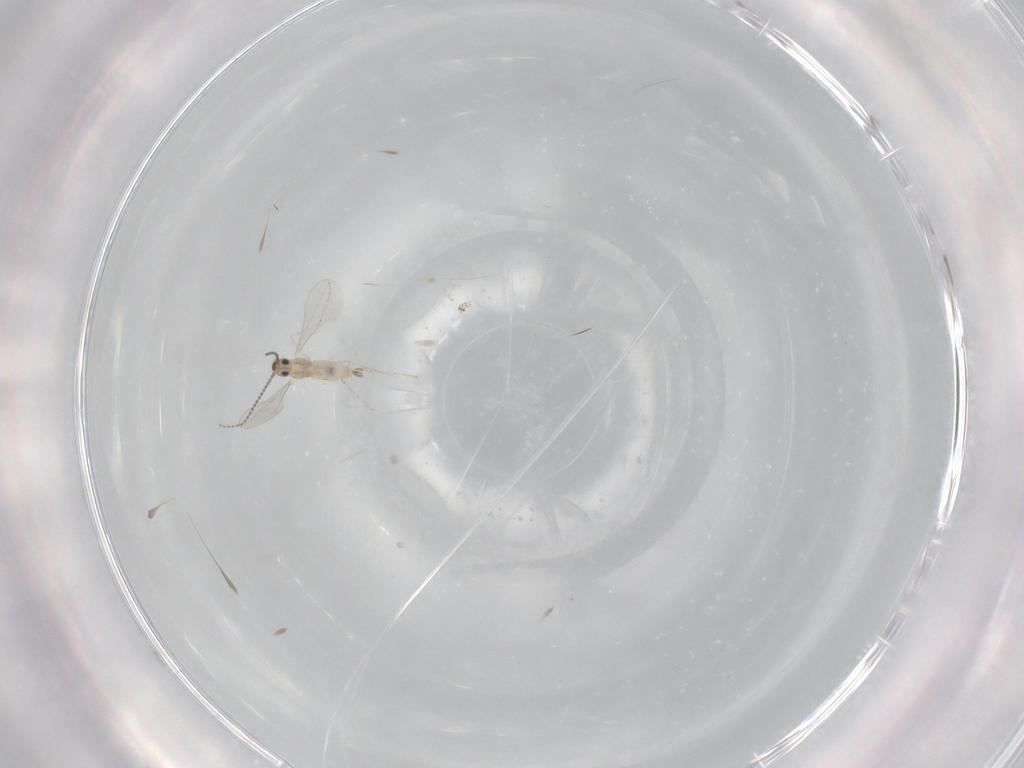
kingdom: Animalia
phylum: Arthropoda
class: Insecta
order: Diptera
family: Cecidomyiidae
